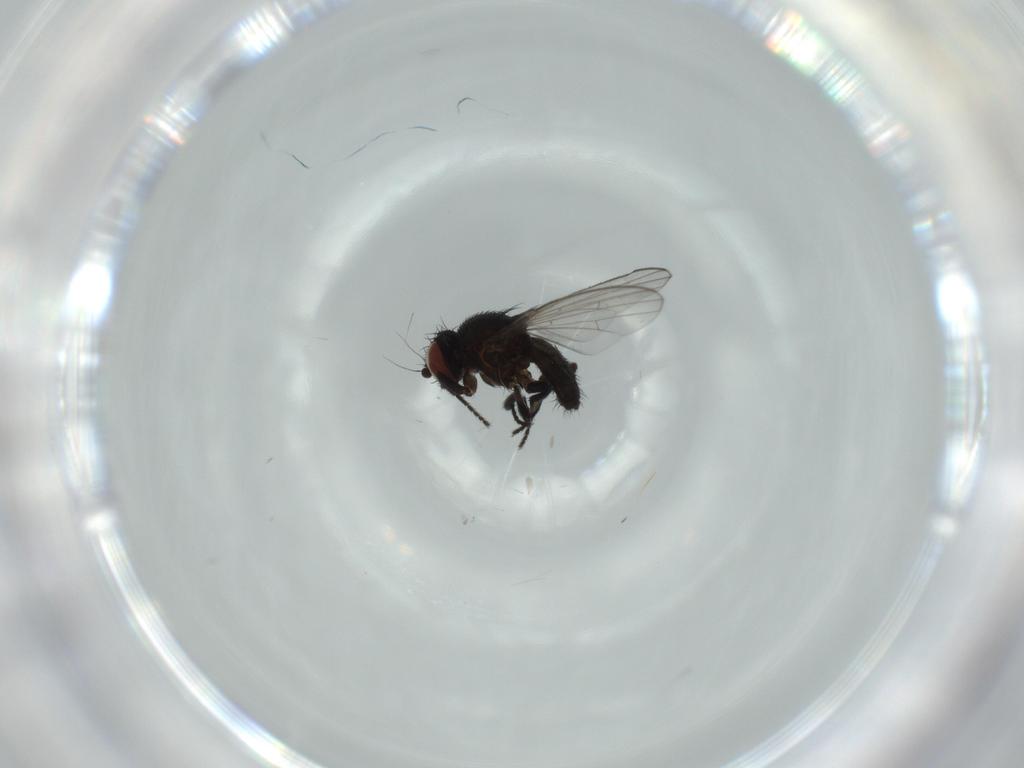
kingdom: Animalia
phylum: Arthropoda
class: Insecta
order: Diptera
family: Milichiidae
